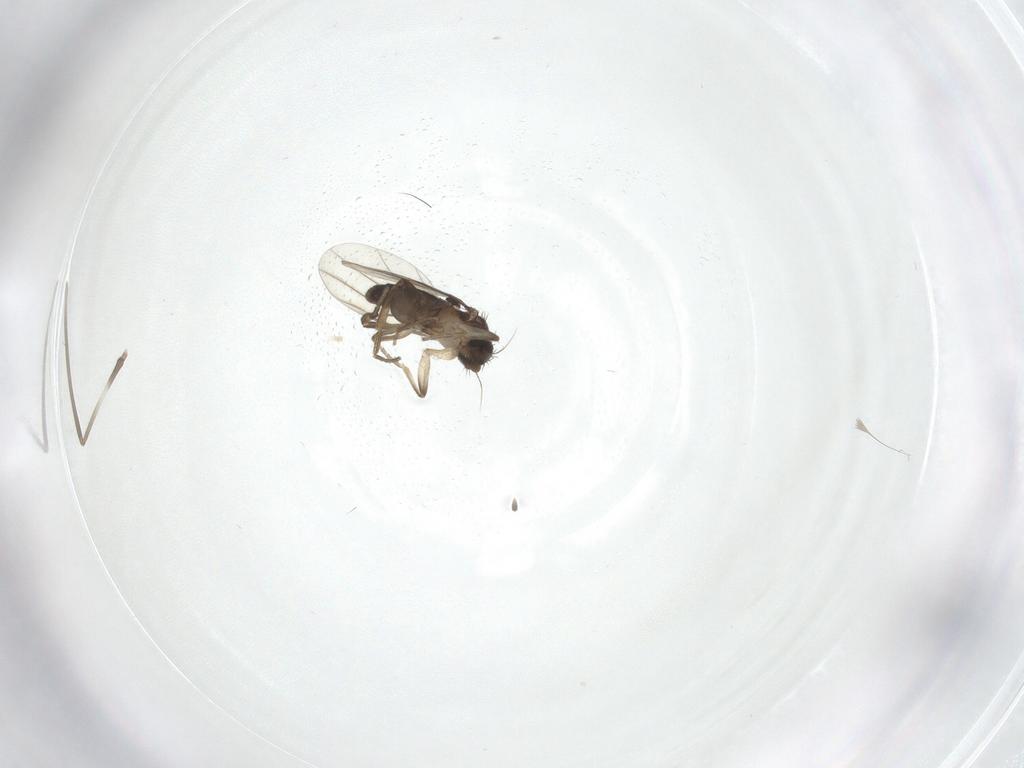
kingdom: Animalia
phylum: Arthropoda
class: Insecta
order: Diptera
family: Cecidomyiidae
